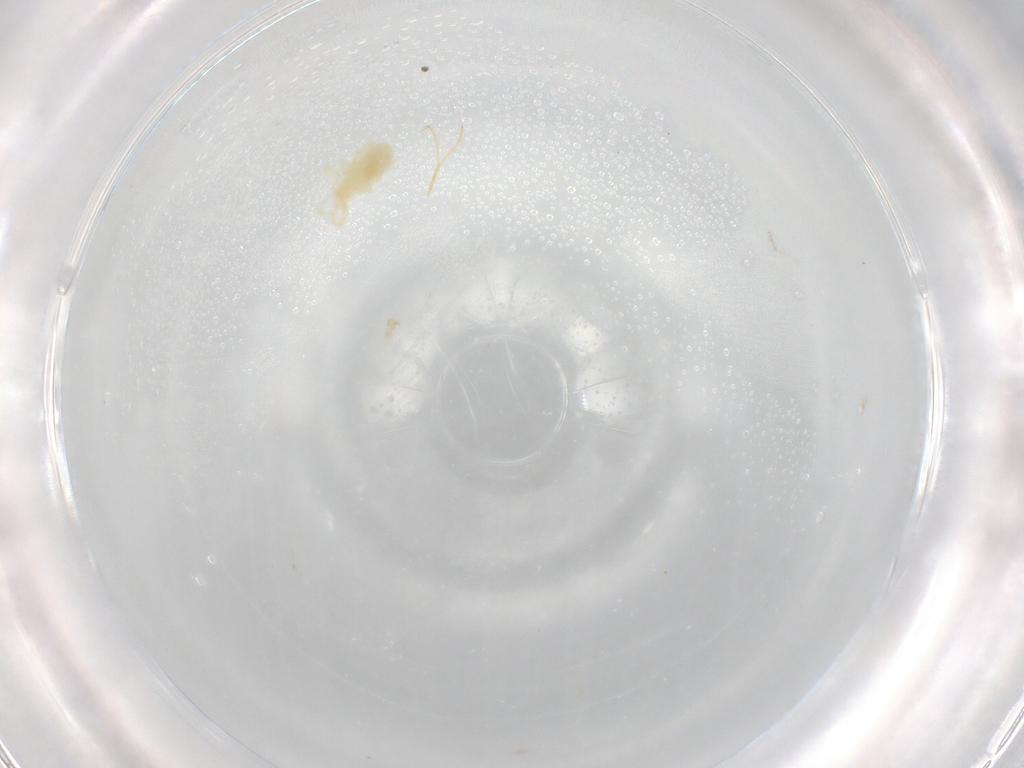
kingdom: Animalia
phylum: Arthropoda
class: Arachnida
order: Trombidiformes
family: Rhagidiidae
